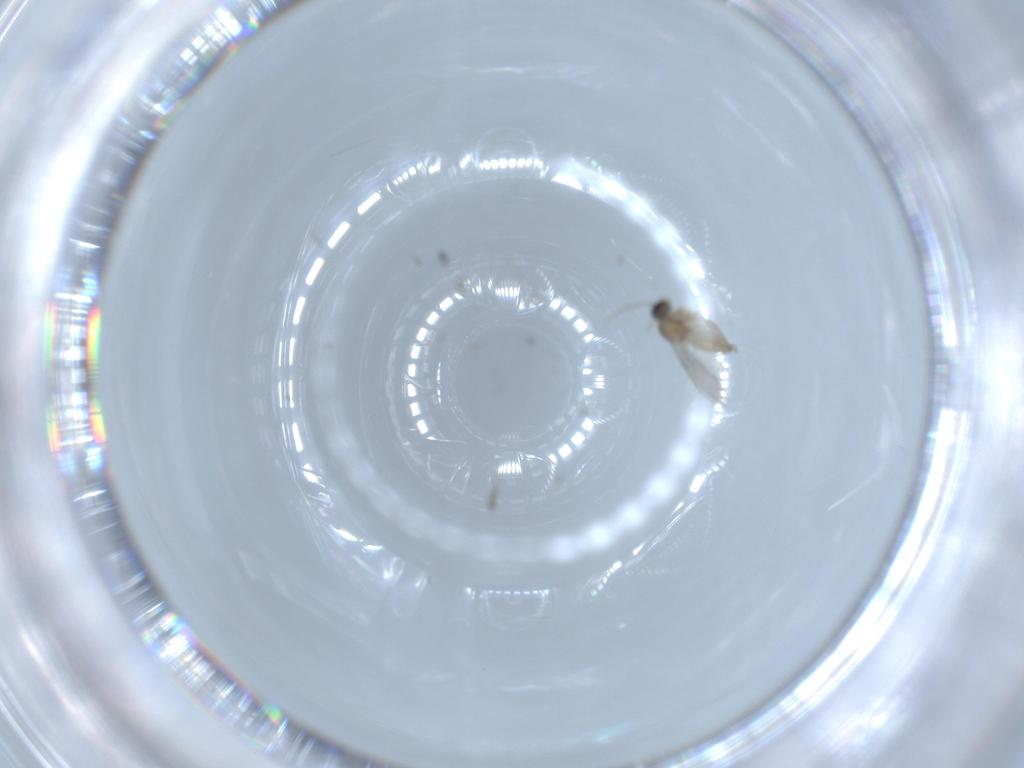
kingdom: Animalia
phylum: Arthropoda
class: Insecta
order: Diptera
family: Cecidomyiidae
